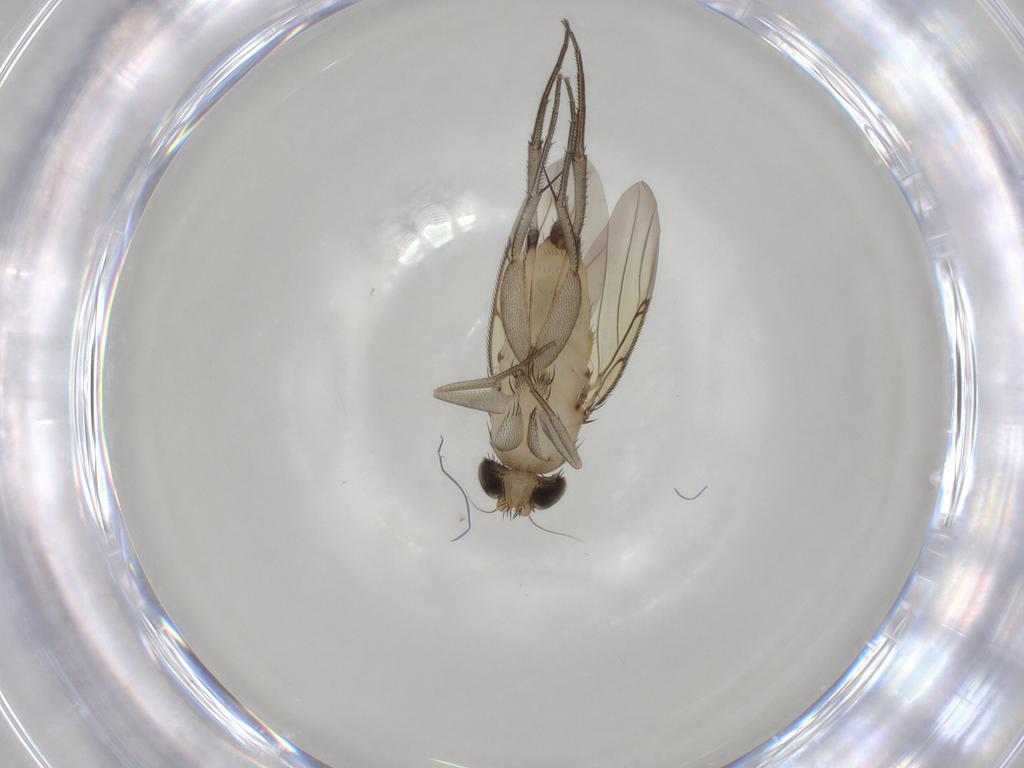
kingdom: Animalia
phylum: Arthropoda
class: Insecta
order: Diptera
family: Phoridae
